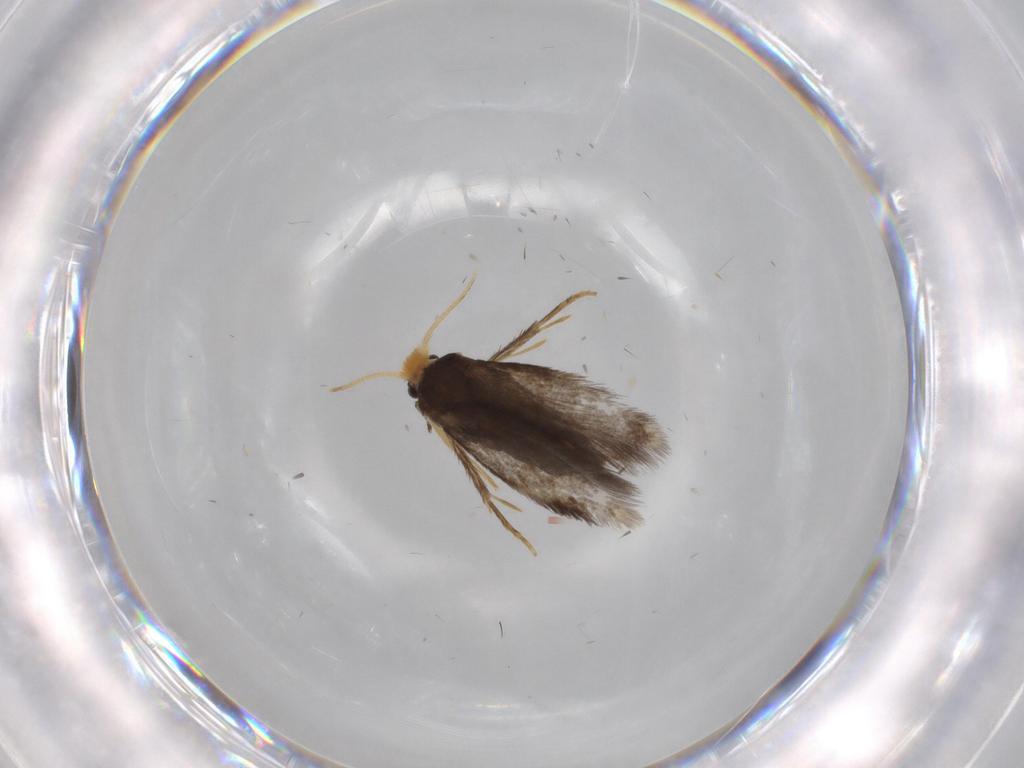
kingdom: Animalia
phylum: Arthropoda
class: Insecta
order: Lepidoptera
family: Nepticulidae
